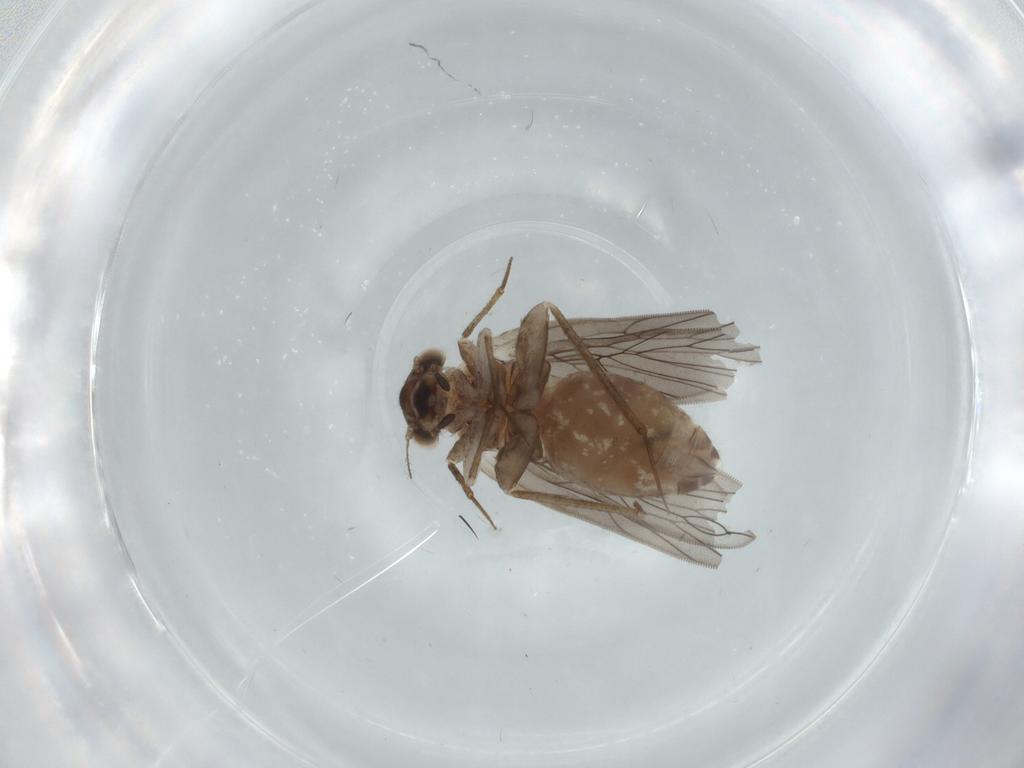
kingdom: Animalia
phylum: Arthropoda
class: Insecta
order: Psocodea
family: Lepidopsocidae
